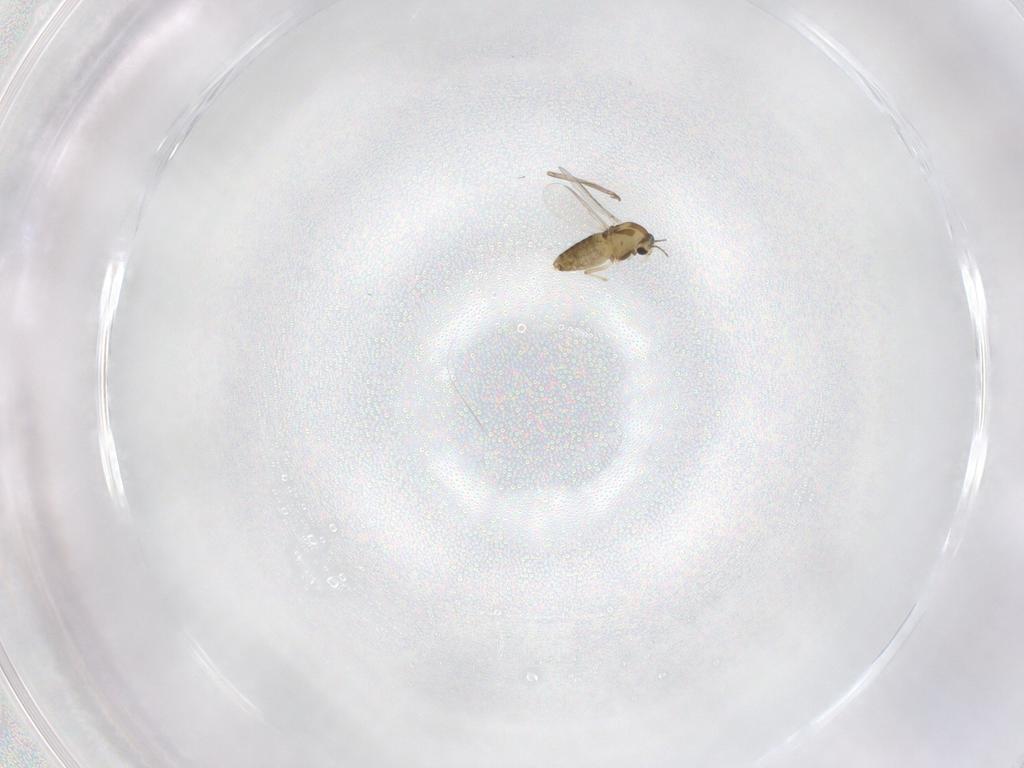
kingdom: Animalia
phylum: Arthropoda
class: Insecta
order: Diptera
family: Chironomidae
